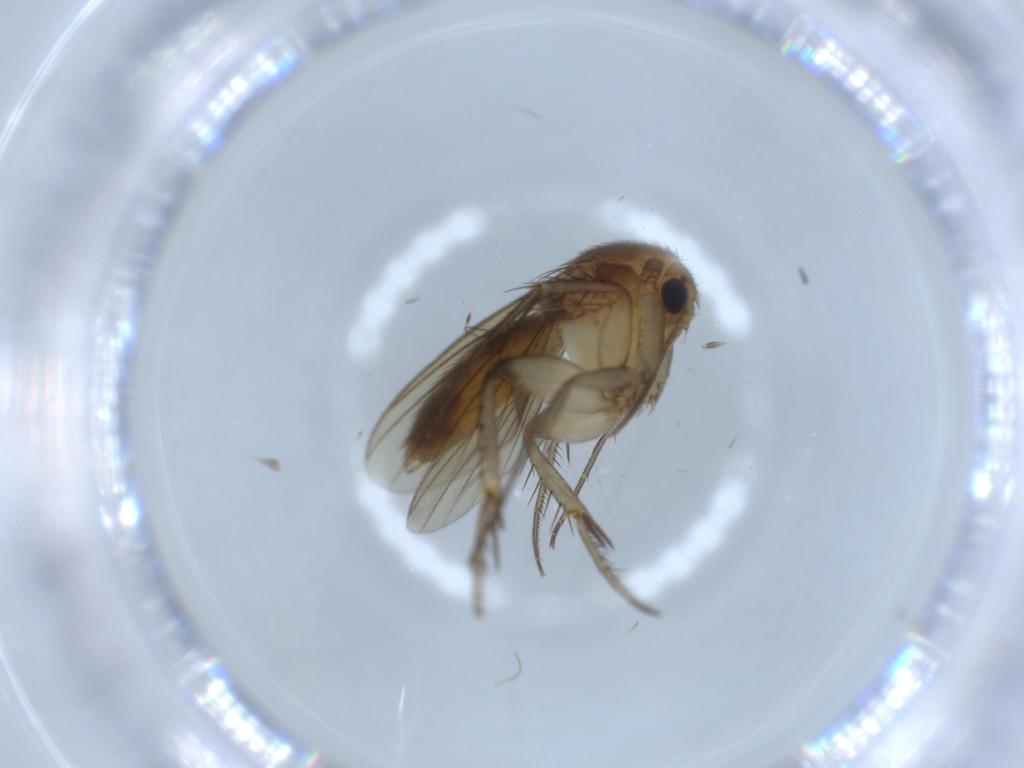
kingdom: Animalia
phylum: Arthropoda
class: Insecta
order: Diptera
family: Mycetophilidae
